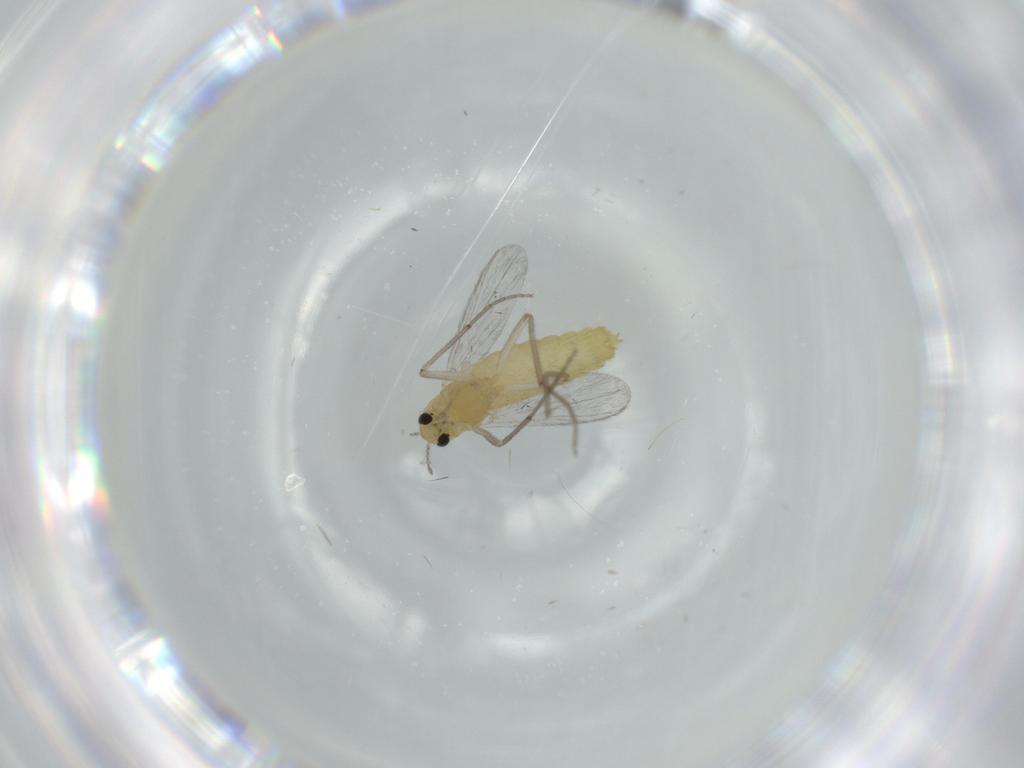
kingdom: Animalia
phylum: Arthropoda
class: Insecta
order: Diptera
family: Chironomidae
